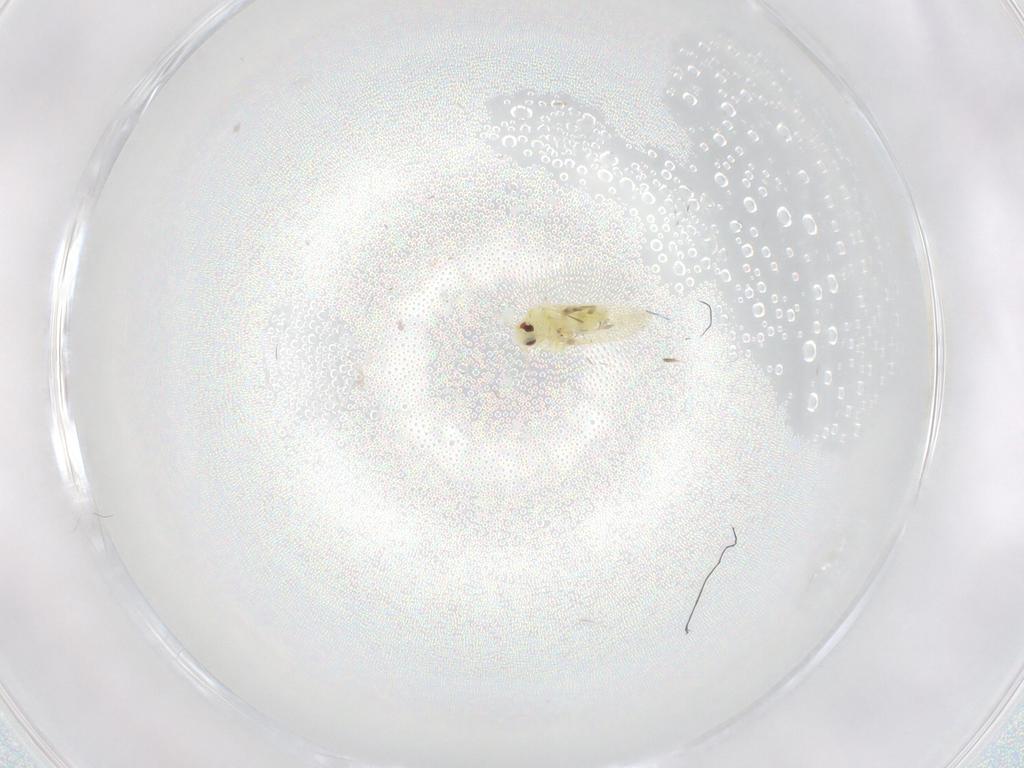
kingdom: Animalia
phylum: Arthropoda
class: Insecta
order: Hemiptera
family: Aleyrodidae
